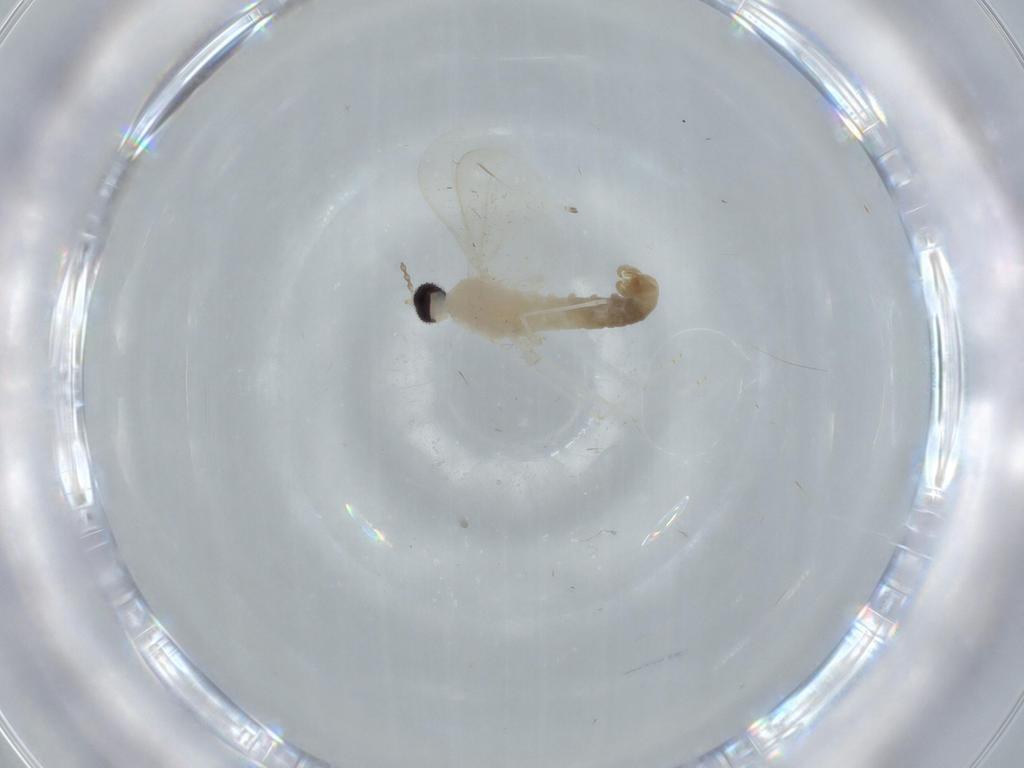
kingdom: Animalia
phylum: Arthropoda
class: Insecta
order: Diptera
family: Cecidomyiidae
